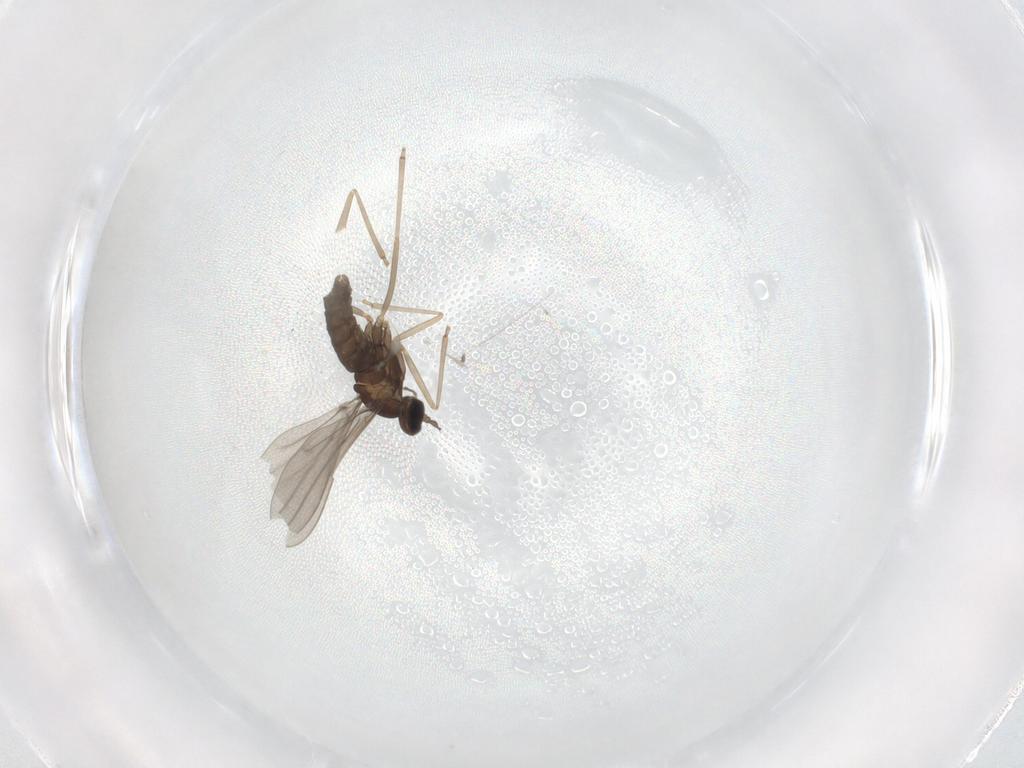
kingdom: Animalia
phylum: Arthropoda
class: Insecta
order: Diptera
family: Cecidomyiidae
